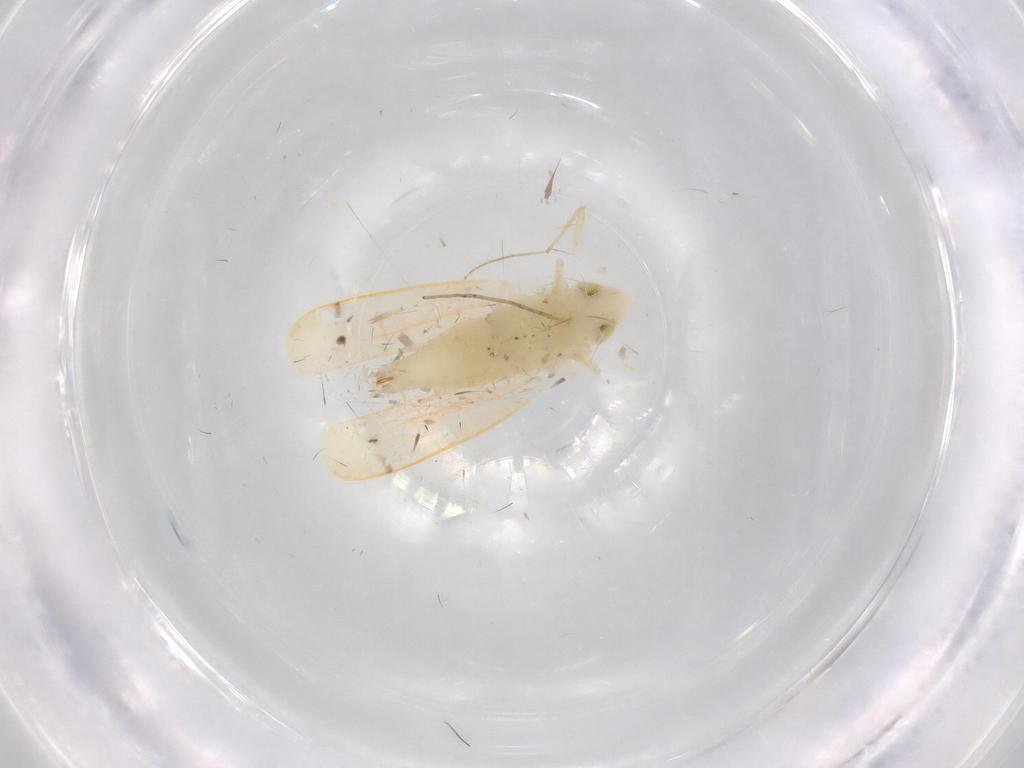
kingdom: Animalia
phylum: Arthropoda
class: Insecta
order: Hemiptera
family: Cicadellidae
